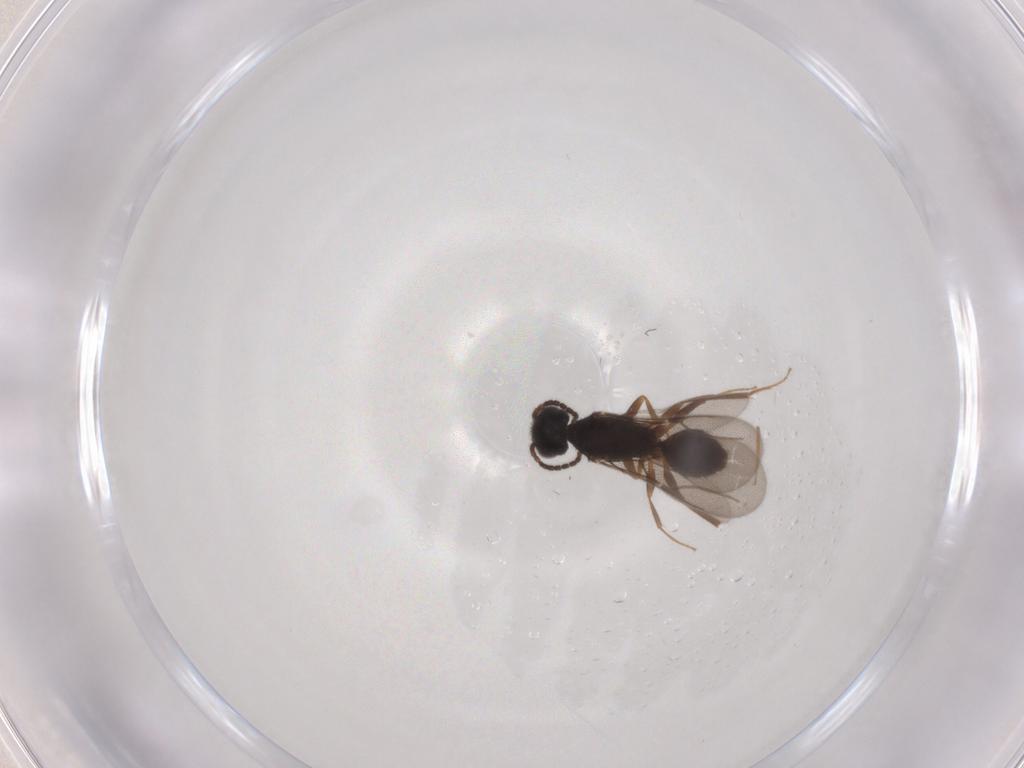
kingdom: Animalia
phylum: Arthropoda
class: Insecta
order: Hymenoptera
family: Bethylidae
